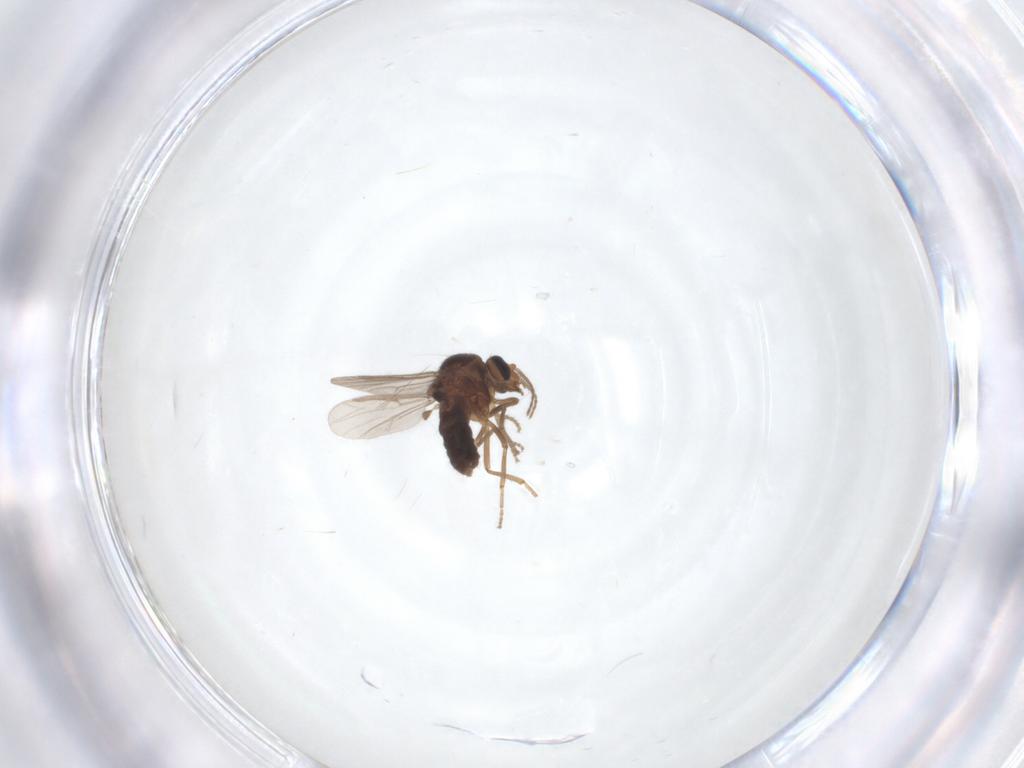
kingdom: Animalia
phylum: Arthropoda
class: Insecta
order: Diptera
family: Ceratopogonidae
